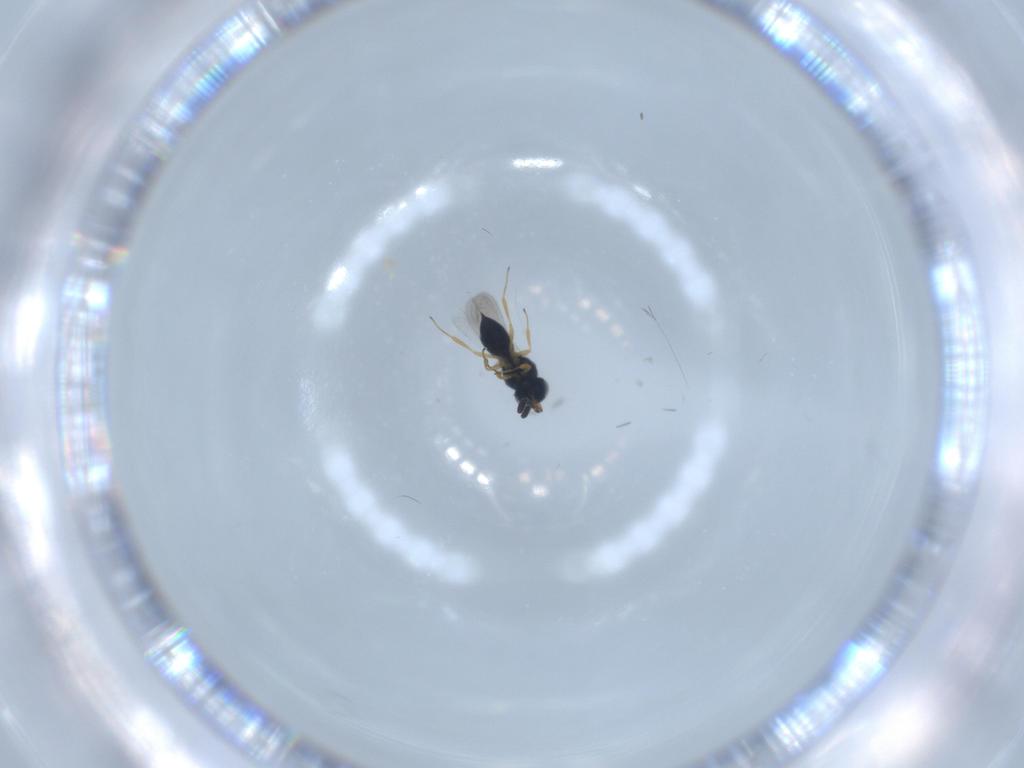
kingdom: Animalia
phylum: Arthropoda
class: Insecta
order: Hymenoptera
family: Scelionidae
